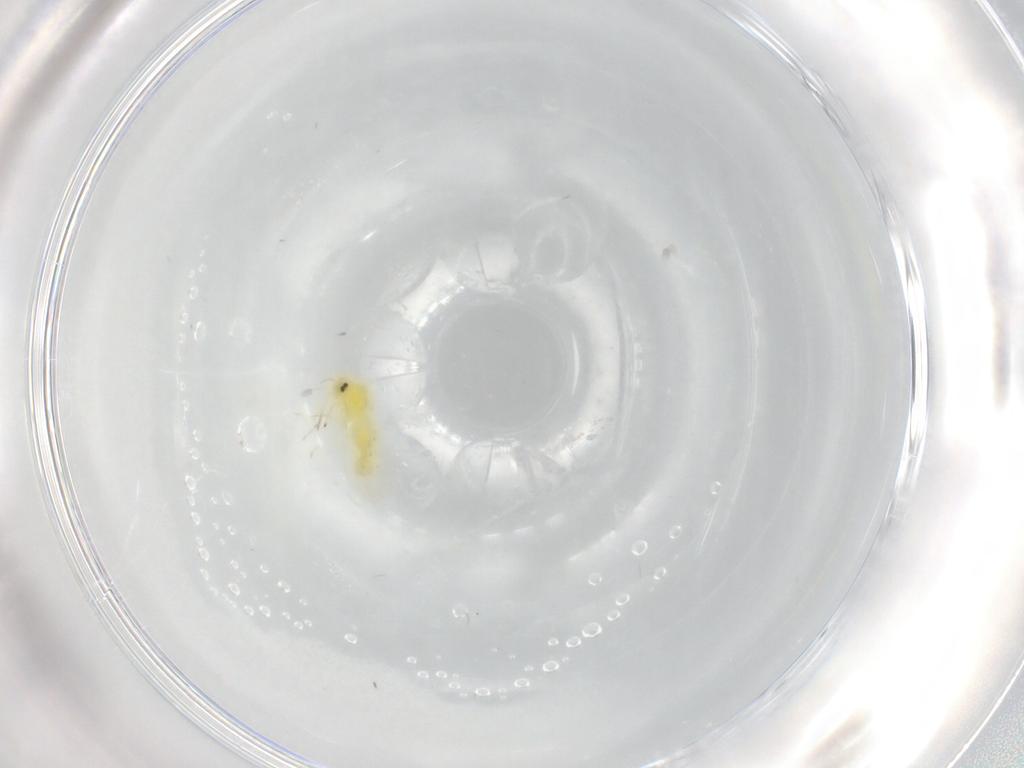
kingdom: Animalia
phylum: Arthropoda
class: Insecta
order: Hemiptera
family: Aleyrodidae
